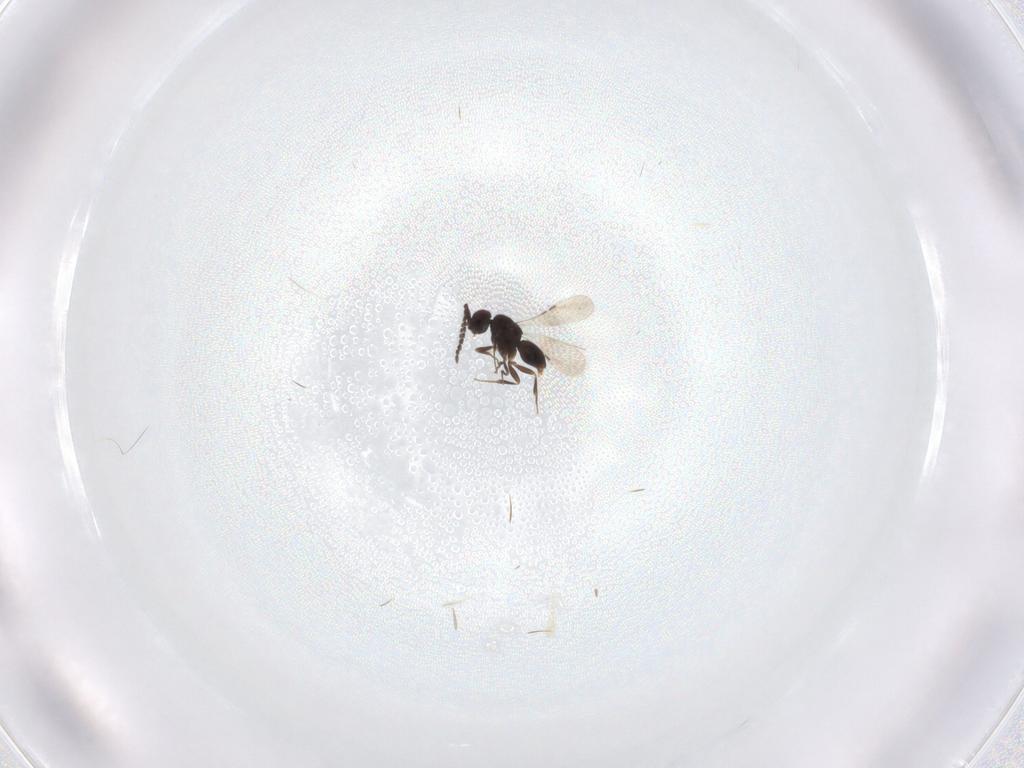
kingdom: Animalia
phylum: Arthropoda
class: Insecta
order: Hymenoptera
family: Ceraphronidae
